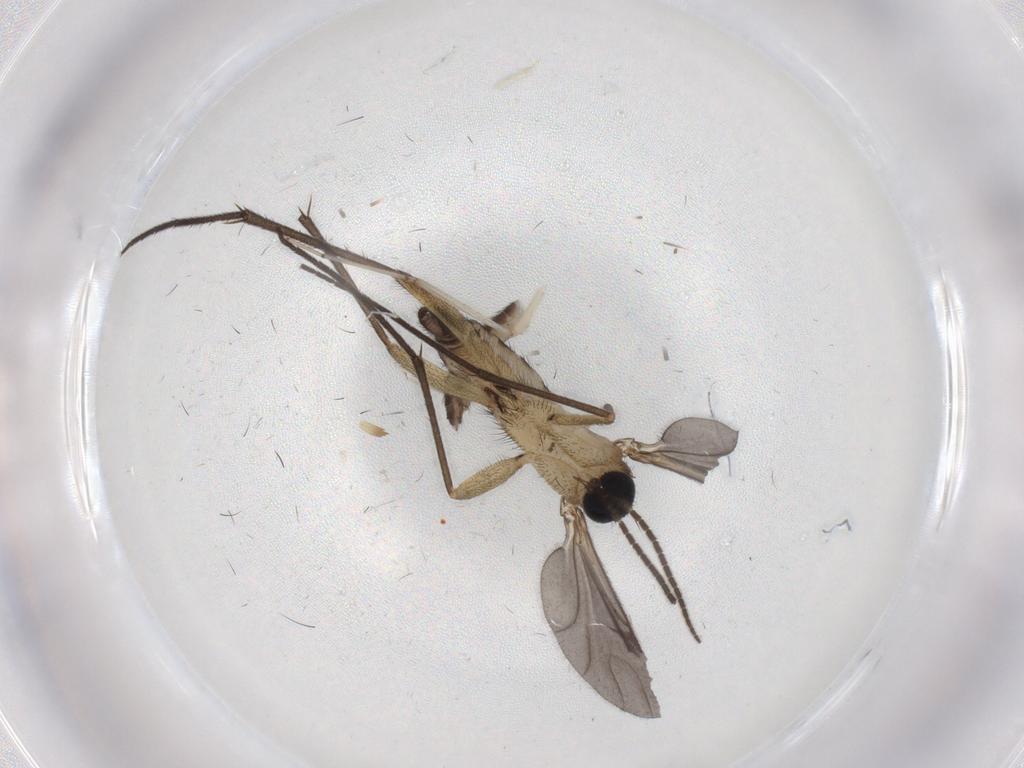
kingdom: Animalia
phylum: Arthropoda
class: Insecta
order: Diptera
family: Sciaridae
